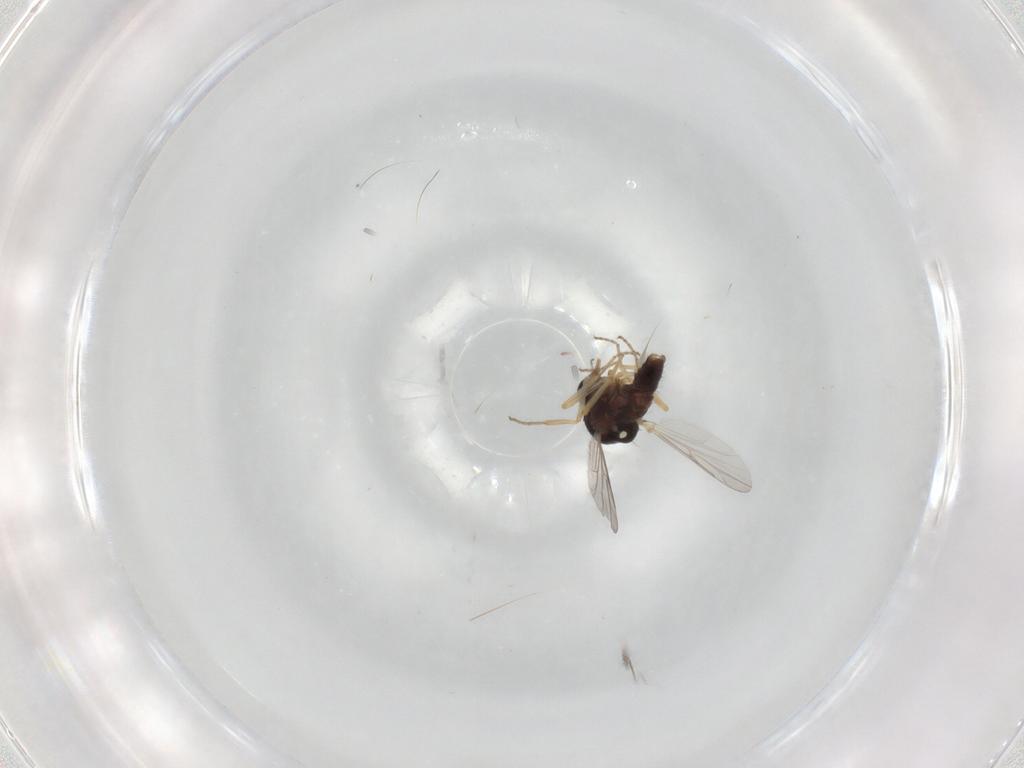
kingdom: Animalia
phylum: Arthropoda
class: Insecta
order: Diptera
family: Ceratopogonidae
